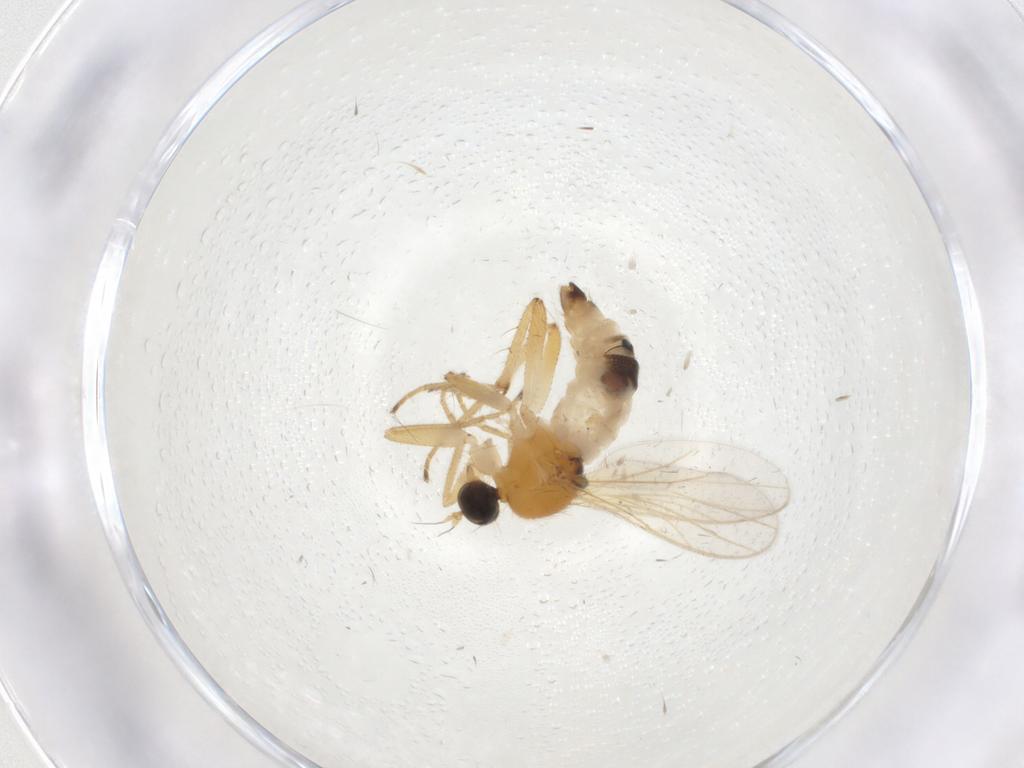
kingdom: Animalia
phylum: Arthropoda
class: Insecta
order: Diptera
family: Hybotidae
